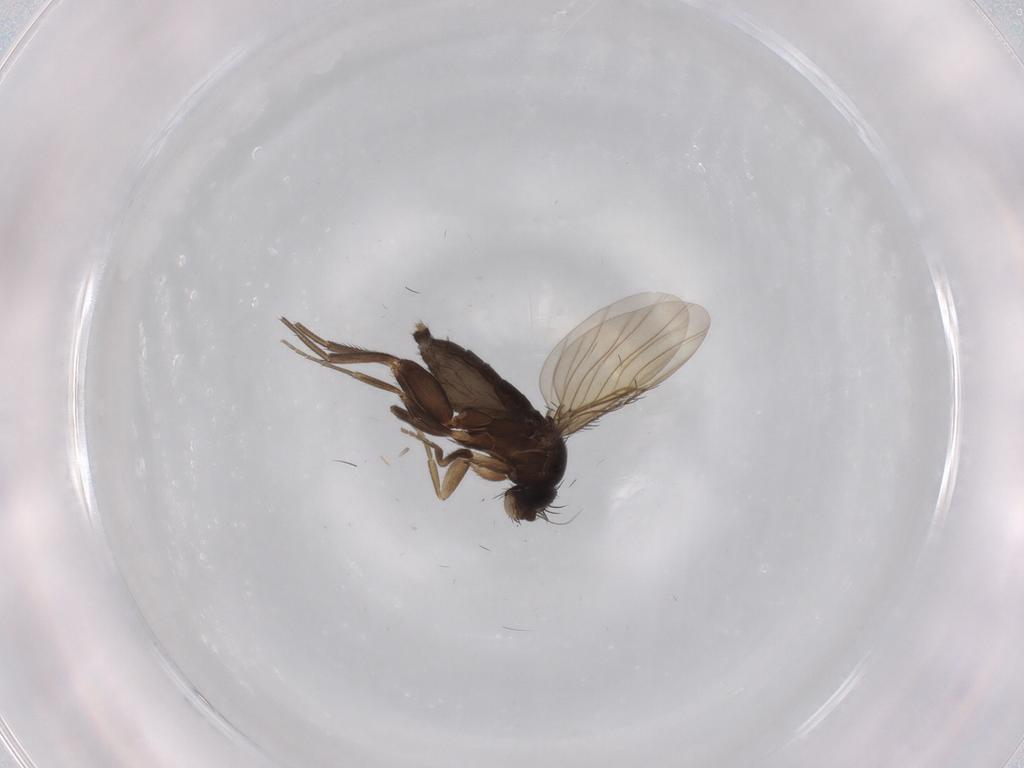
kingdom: Animalia
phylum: Arthropoda
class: Insecta
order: Diptera
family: Phoridae
